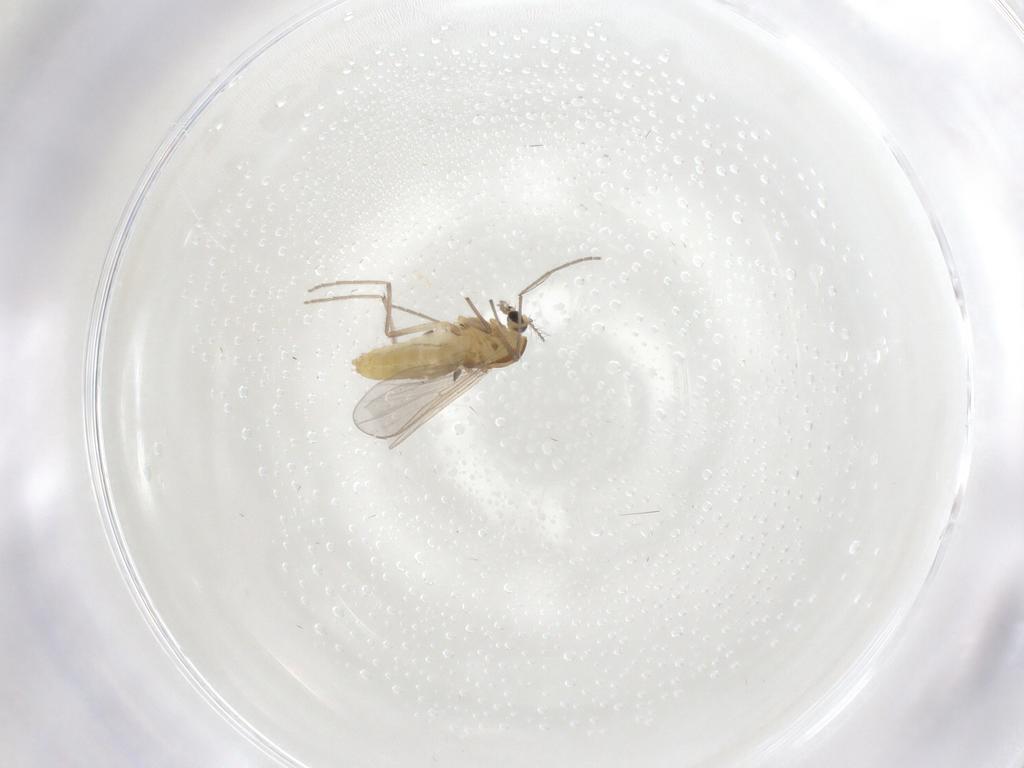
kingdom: Animalia
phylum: Arthropoda
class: Insecta
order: Diptera
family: Chironomidae
